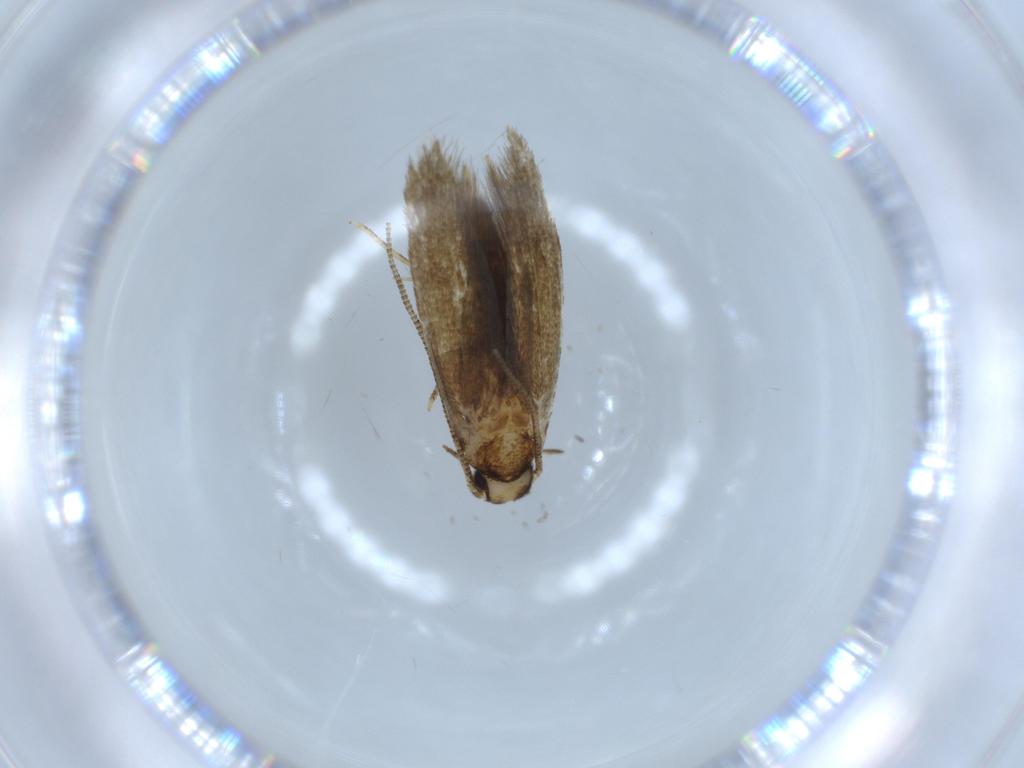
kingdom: Animalia
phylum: Arthropoda
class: Insecta
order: Lepidoptera
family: Tineidae
